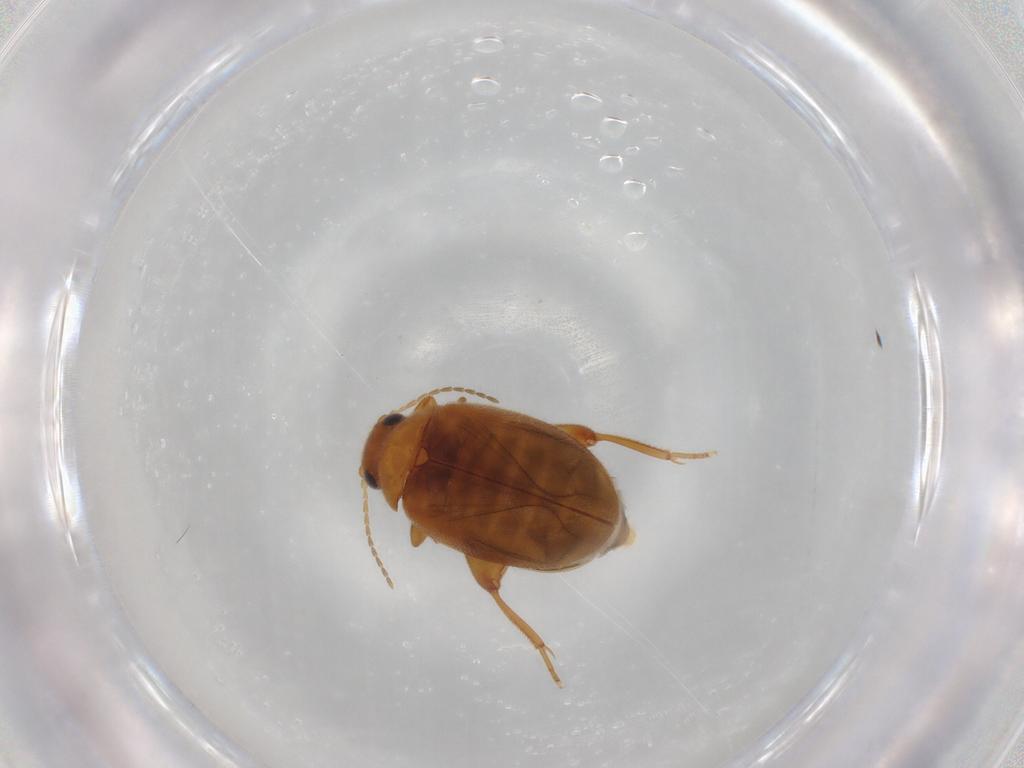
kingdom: Animalia
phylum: Arthropoda
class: Insecta
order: Coleoptera
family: Scirtidae
